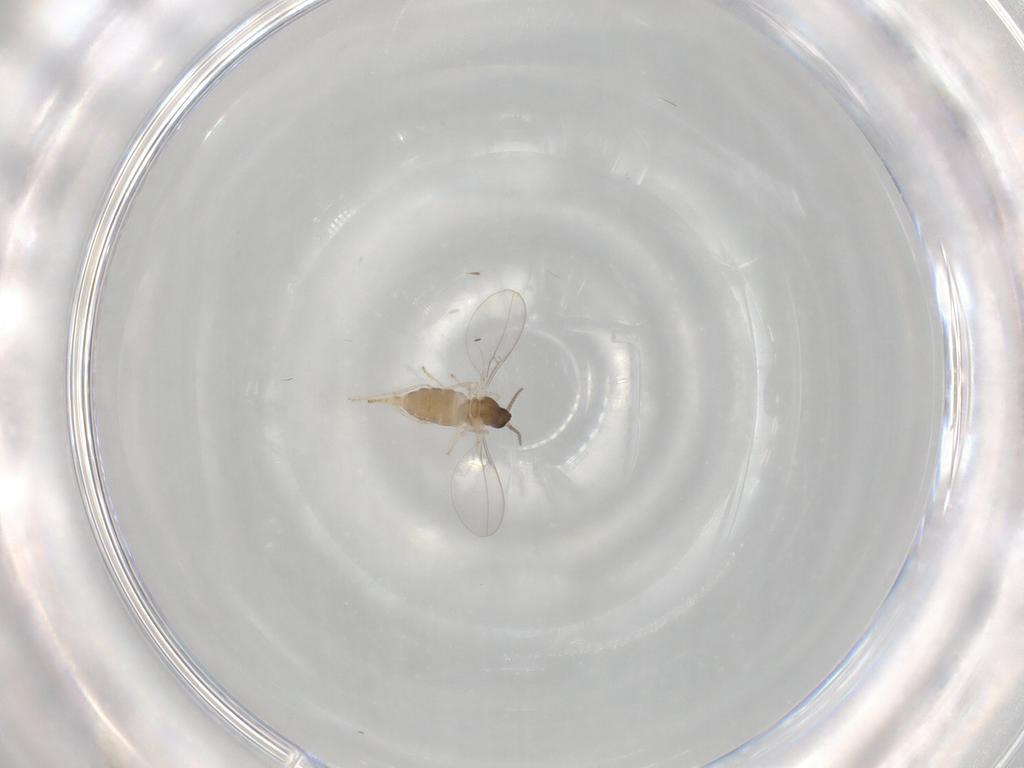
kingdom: Animalia
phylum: Arthropoda
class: Insecta
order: Diptera
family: Cecidomyiidae
